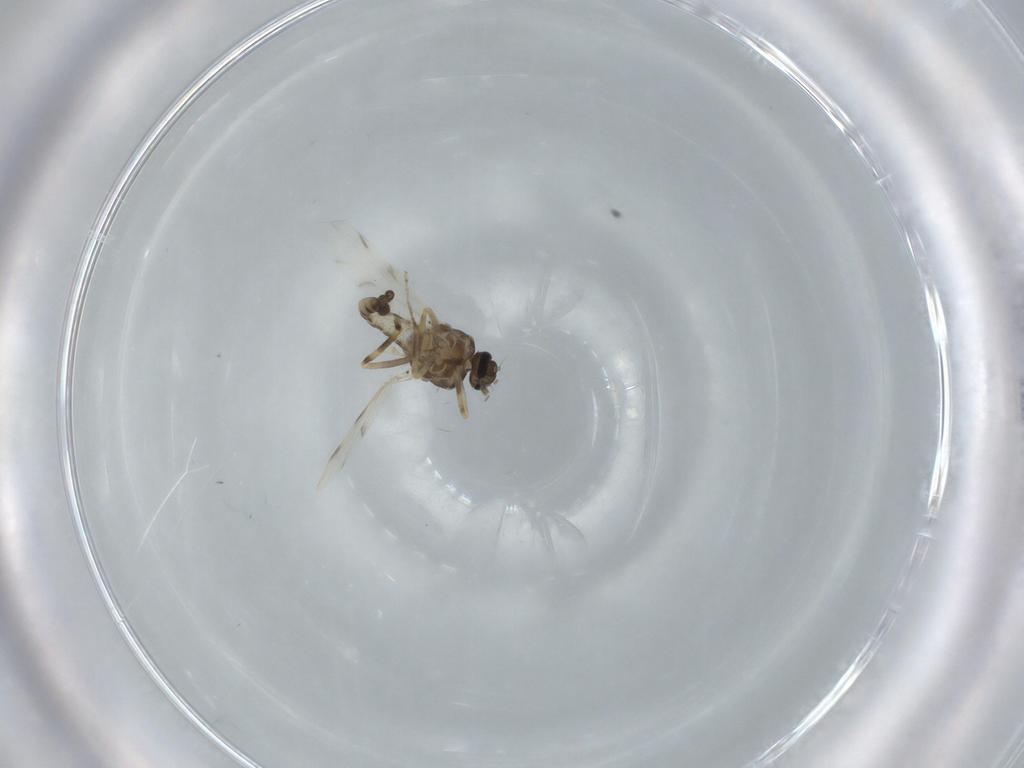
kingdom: Animalia
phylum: Arthropoda
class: Insecta
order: Diptera
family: Ceratopogonidae
